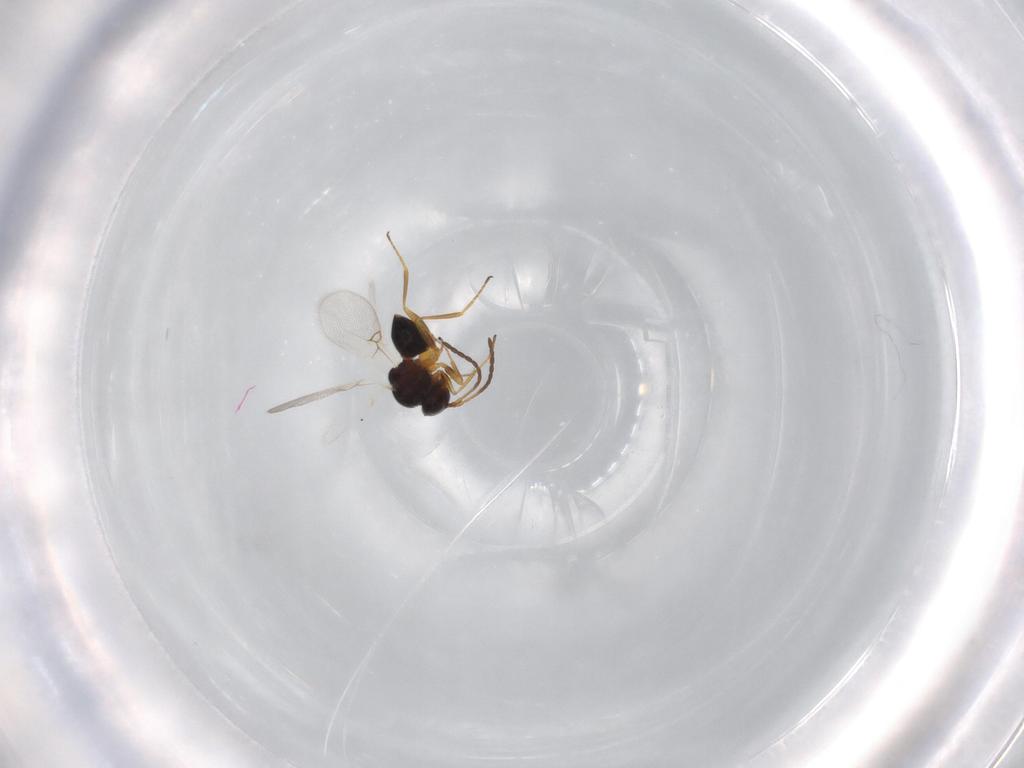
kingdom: Animalia
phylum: Arthropoda
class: Insecta
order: Hymenoptera
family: Figitidae
